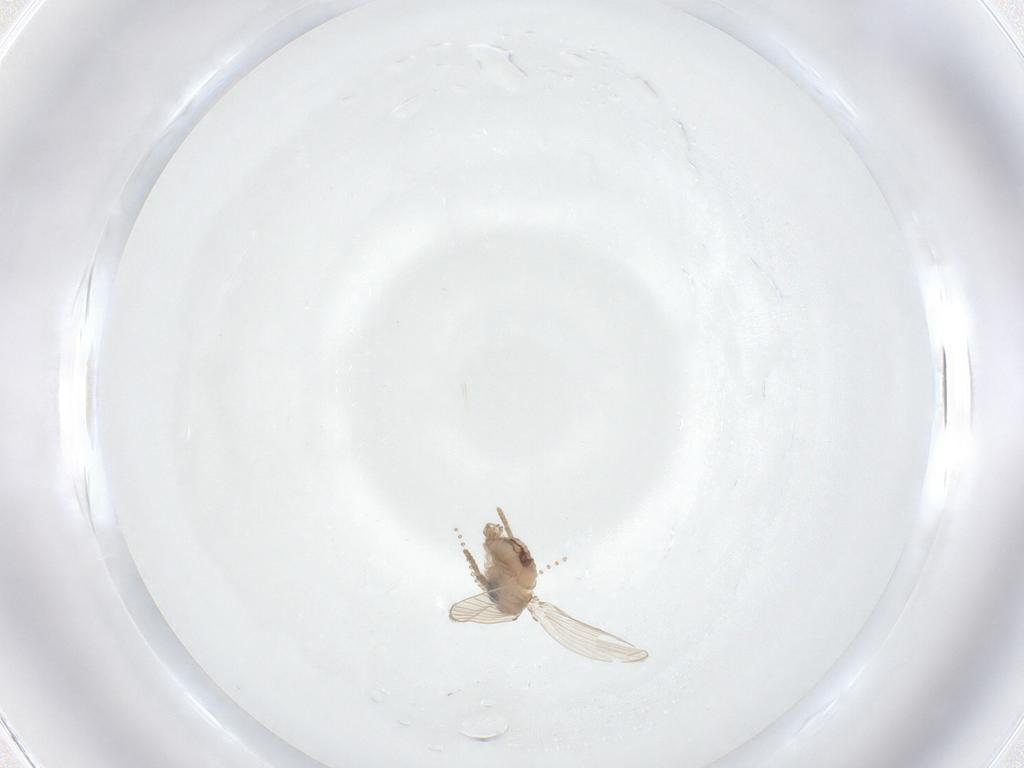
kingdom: Animalia
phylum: Arthropoda
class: Insecta
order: Diptera
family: Psychodidae
